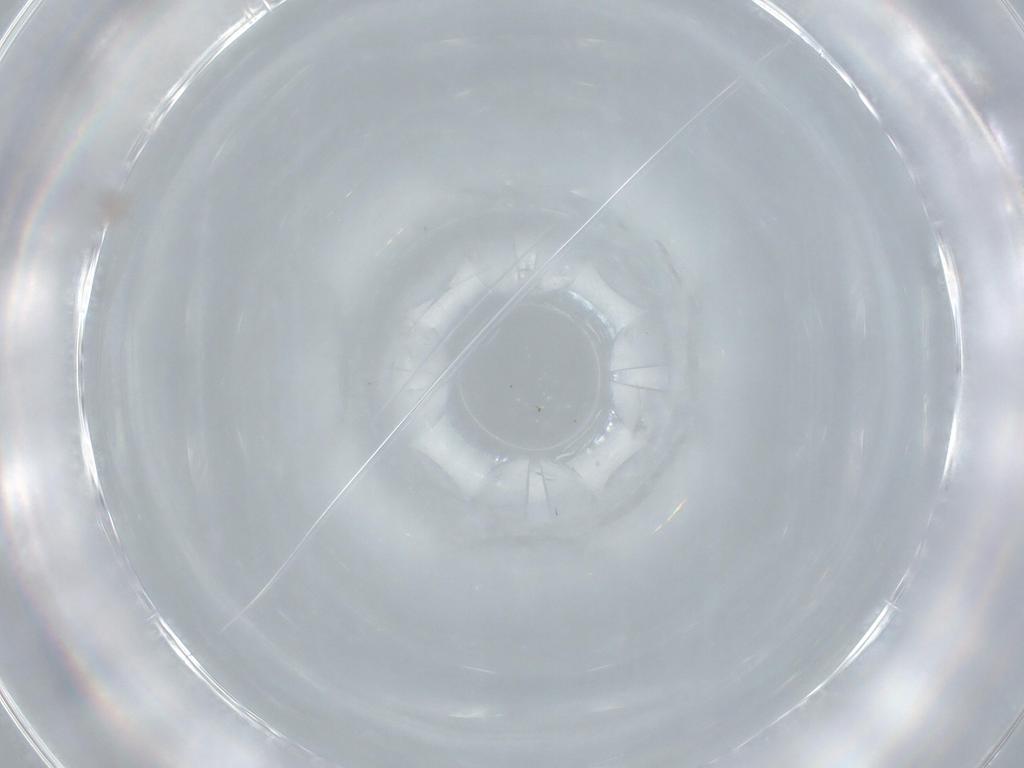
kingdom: Animalia
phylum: Arthropoda
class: Insecta
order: Diptera
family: Cecidomyiidae
